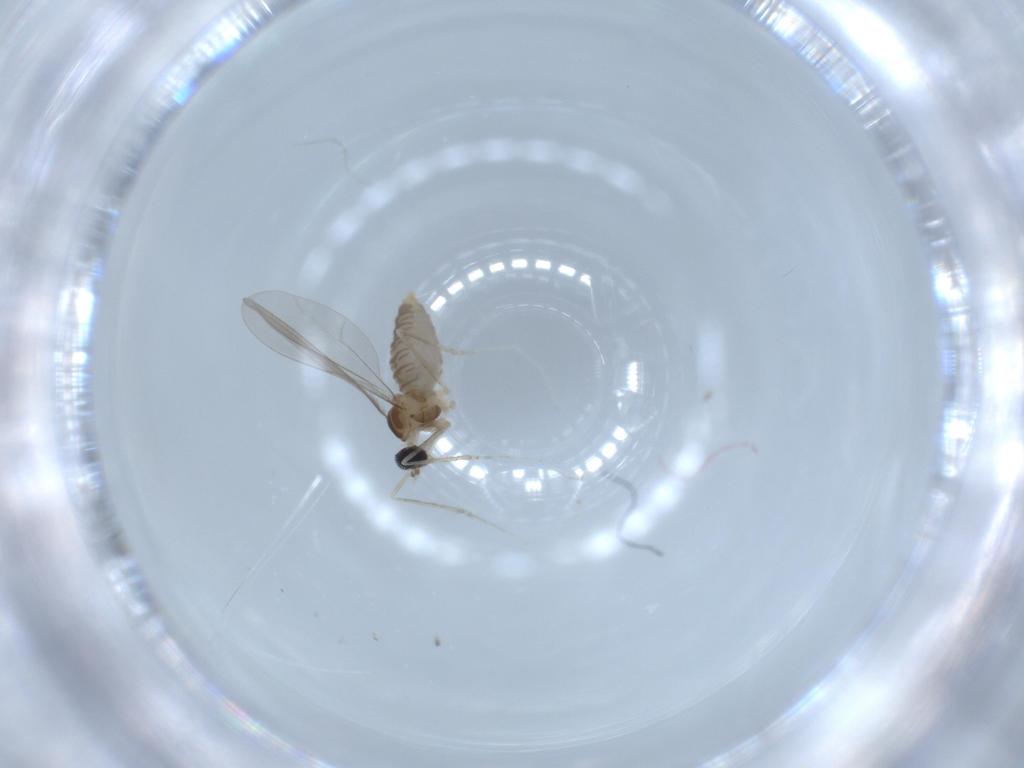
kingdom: Animalia
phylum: Arthropoda
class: Insecta
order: Diptera
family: Cecidomyiidae
